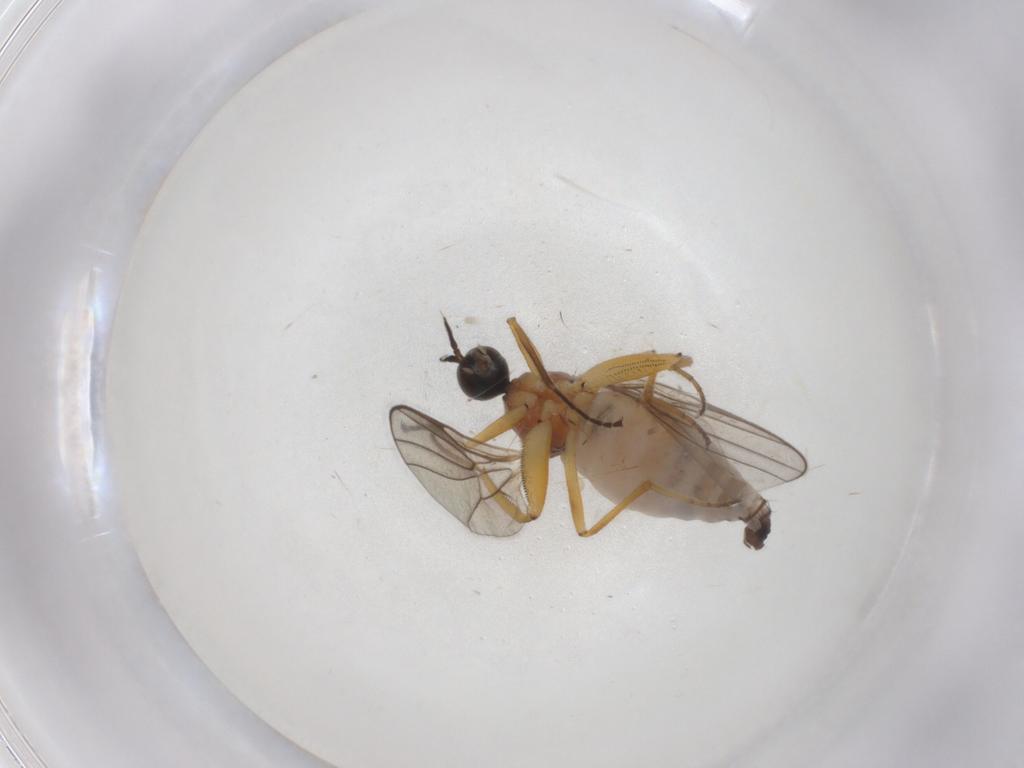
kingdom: Animalia
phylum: Arthropoda
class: Insecta
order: Diptera
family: Hybotidae
